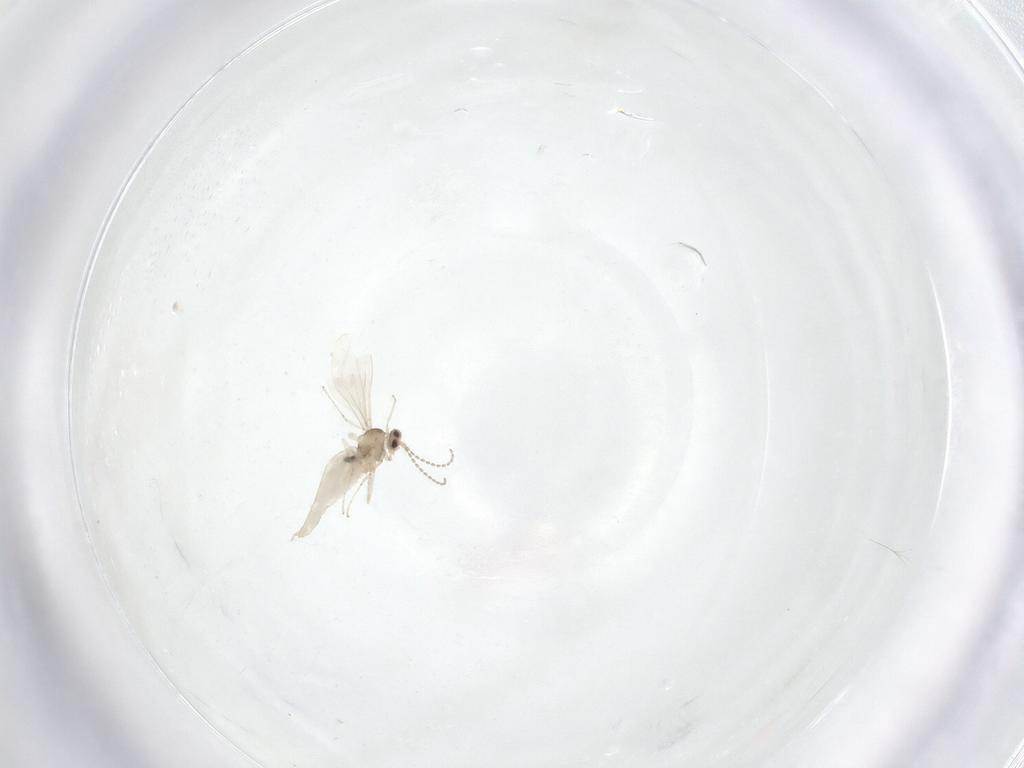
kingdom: Animalia
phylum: Arthropoda
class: Insecta
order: Diptera
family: Cecidomyiidae
